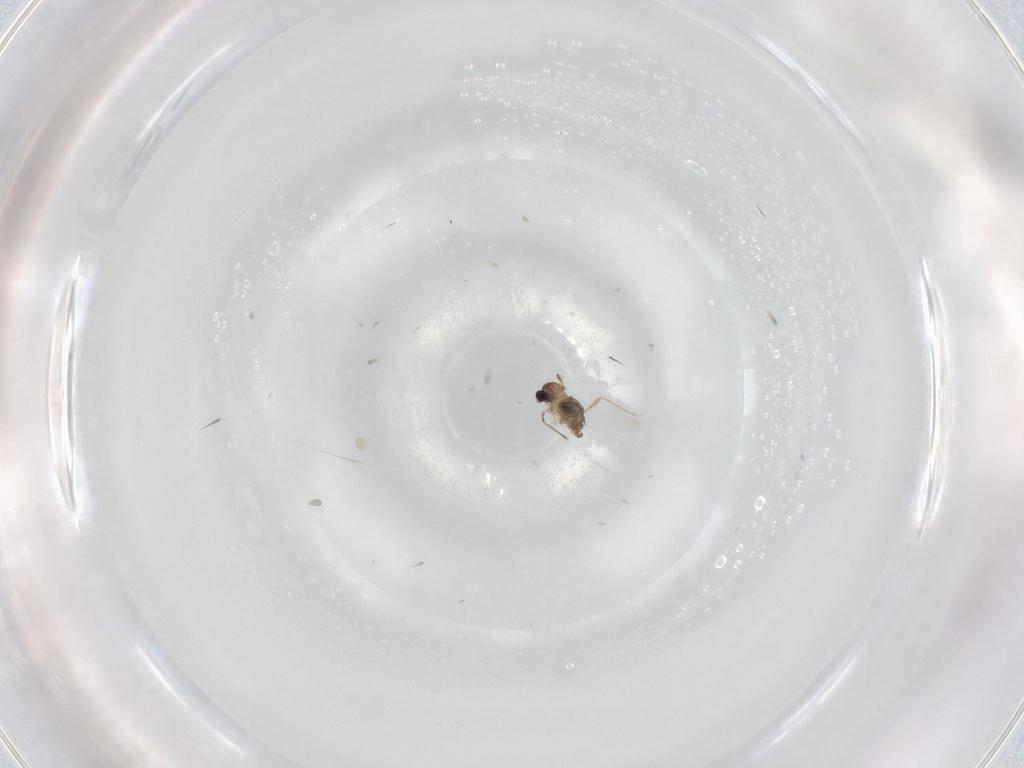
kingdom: Animalia
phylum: Arthropoda
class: Insecta
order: Diptera
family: Cecidomyiidae
